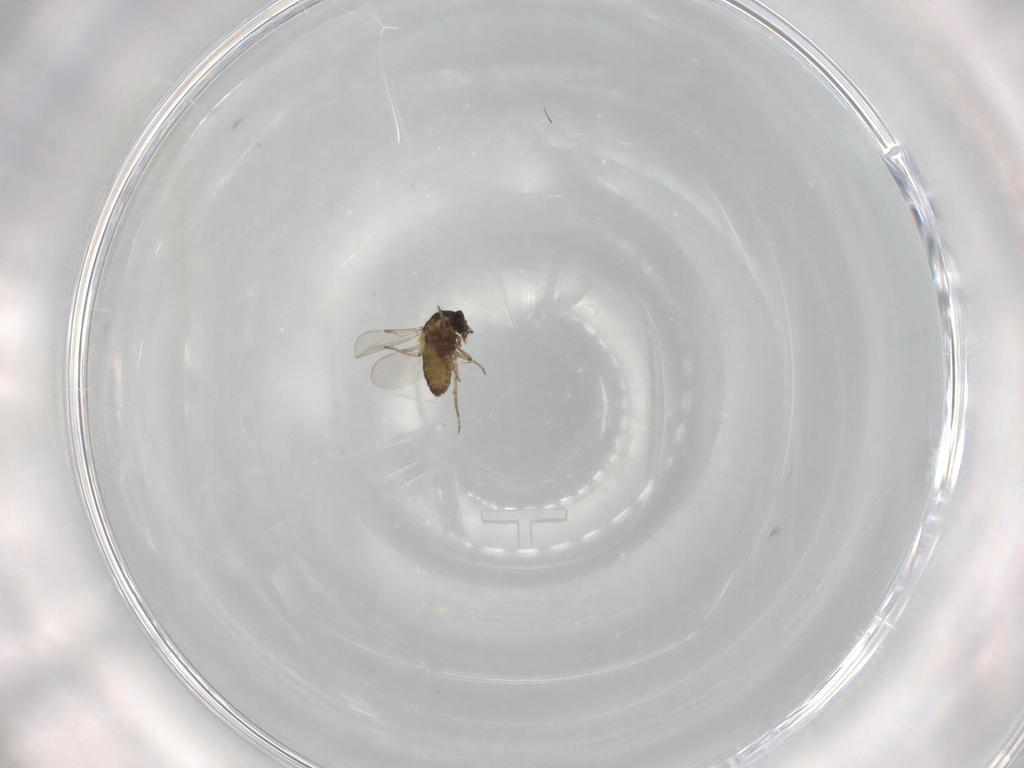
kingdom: Animalia
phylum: Arthropoda
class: Insecta
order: Diptera
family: Ceratopogonidae
